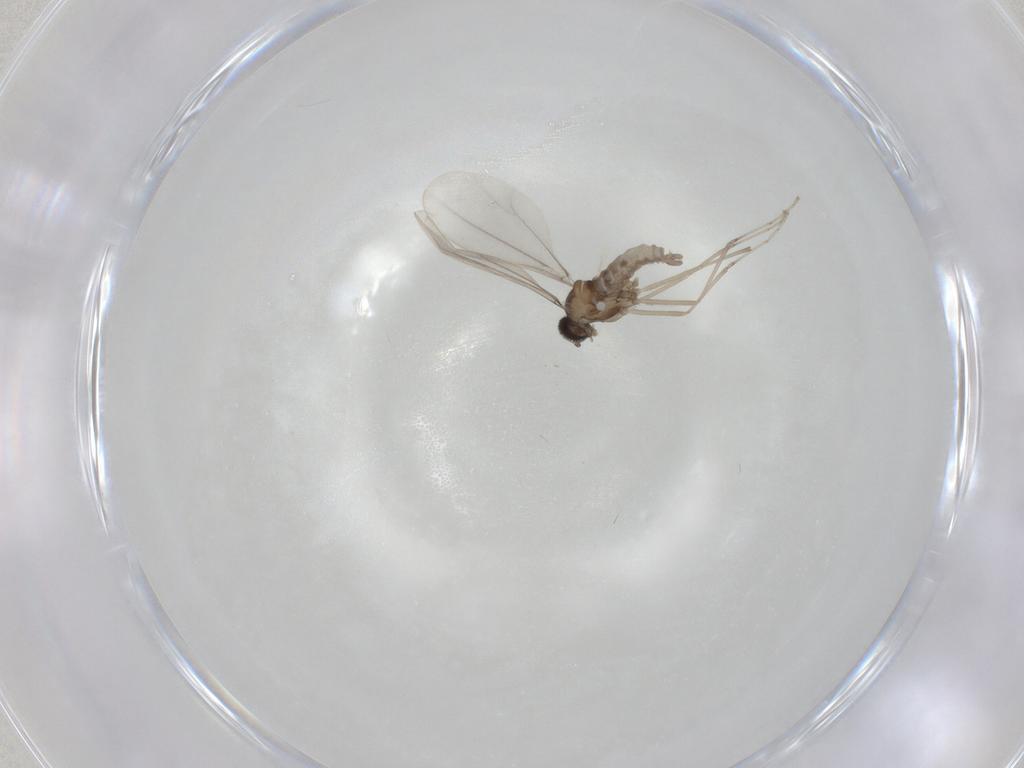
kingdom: Animalia
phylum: Arthropoda
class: Insecta
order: Diptera
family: Cecidomyiidae
